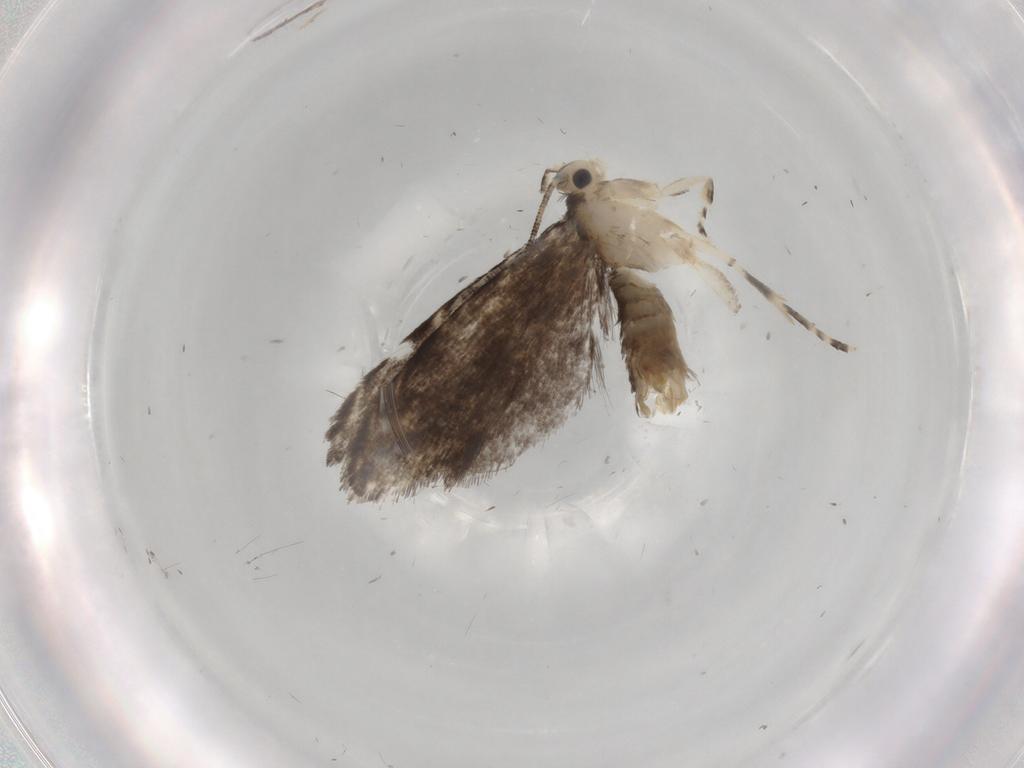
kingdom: Animalia
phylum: Arthropoda
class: Insecta
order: Lepidoptera
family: Tineidae
